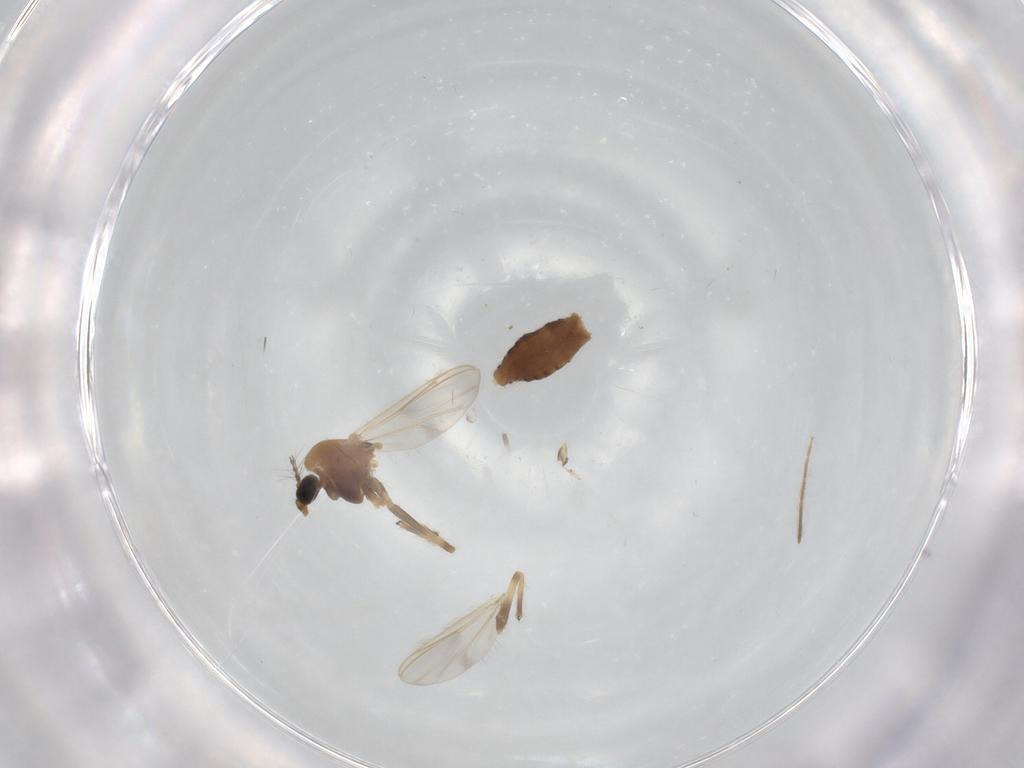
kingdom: Animalia
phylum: Arthropoda
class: Insecta
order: Diptera
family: Chironomidae
